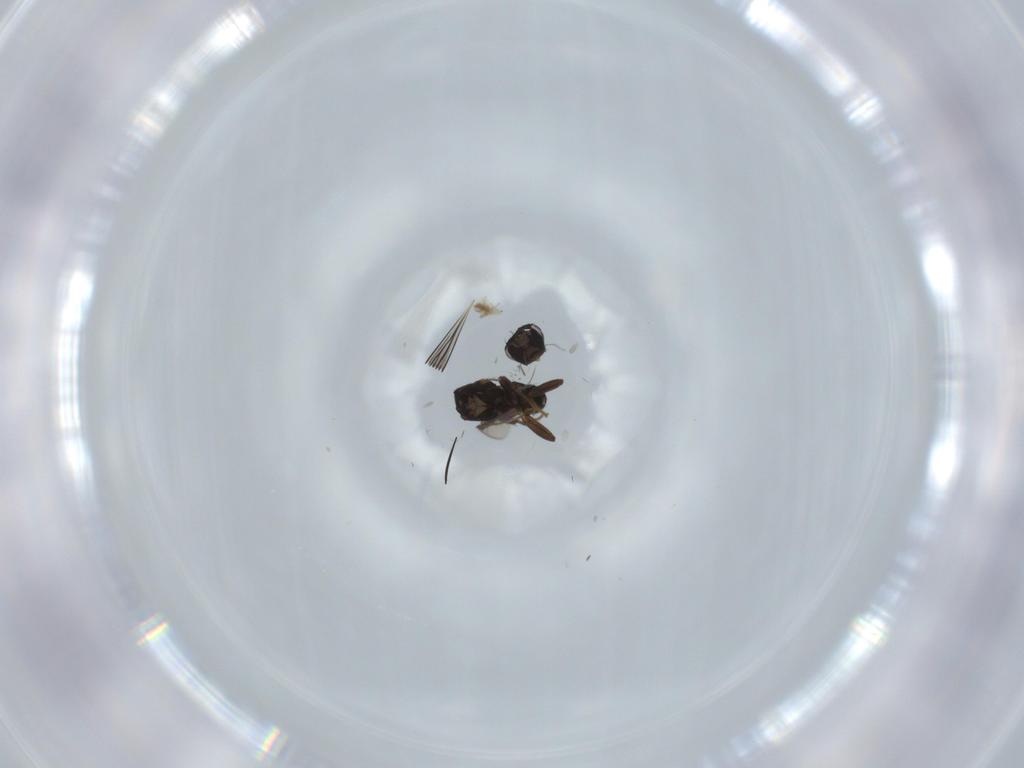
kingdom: Animalia
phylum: Arthropoda
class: Insecta
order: Diptera
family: Sphaeroceridae
